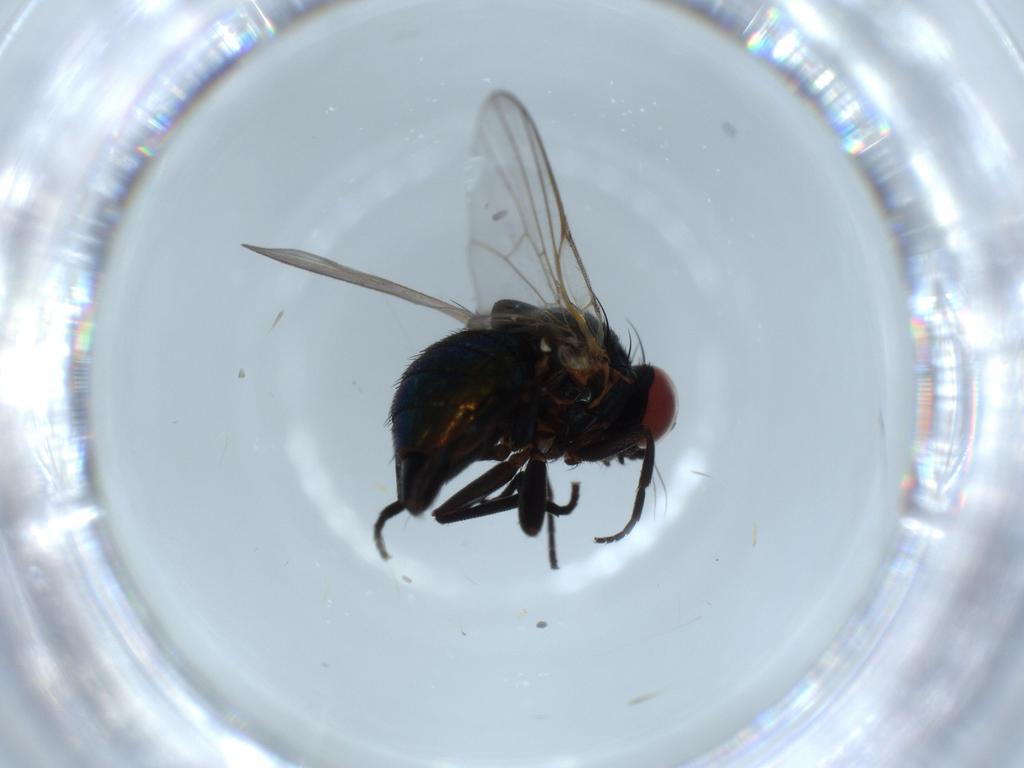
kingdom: Animalia
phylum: Arthropoda
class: Insecta
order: Diptera
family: Agromyzidae
